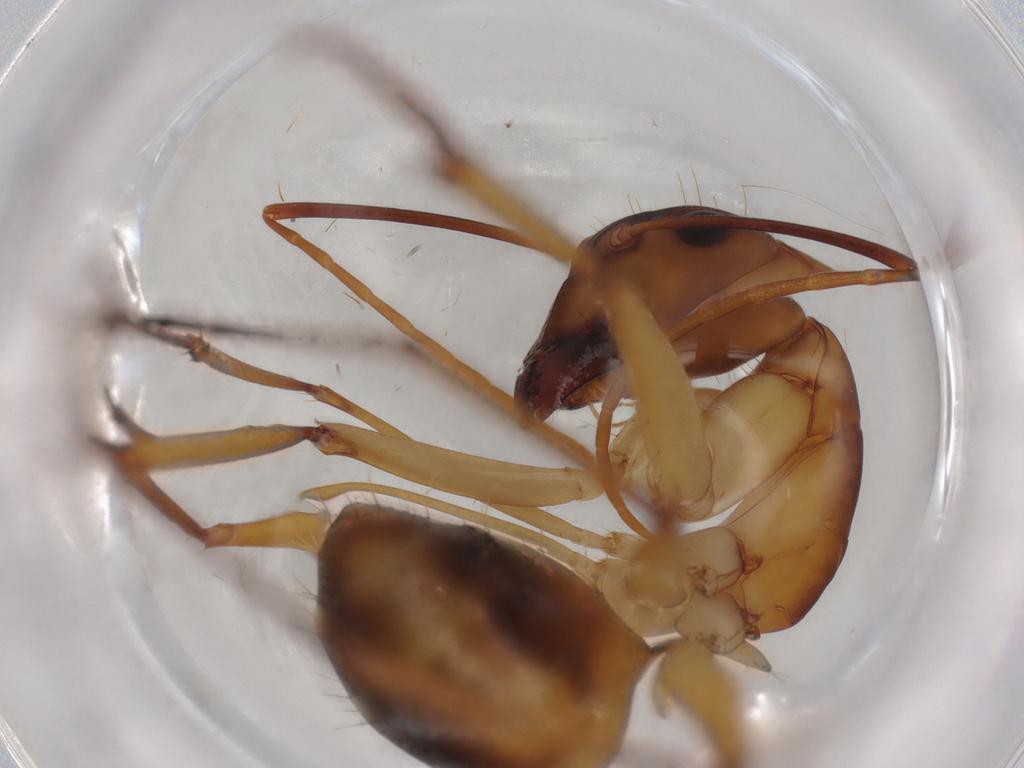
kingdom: Animalia
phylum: Arthropoda
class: Insecta
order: Hymenoptera
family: Formicidae
